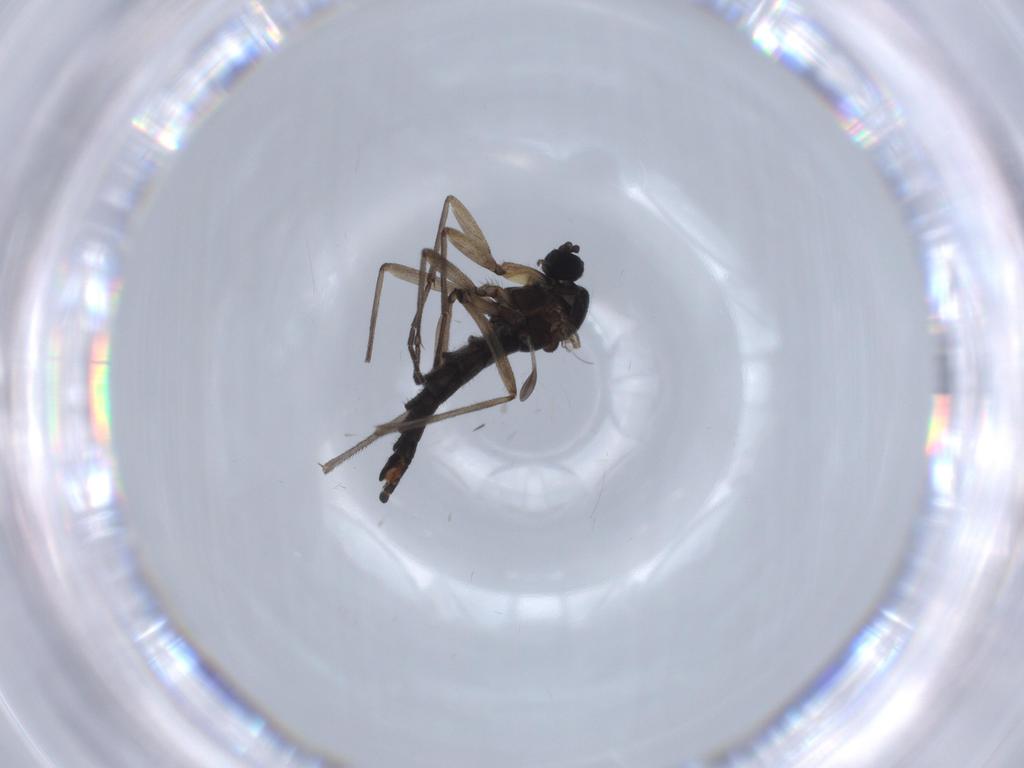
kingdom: Animalia
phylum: Arthropoda
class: Insecta
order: Diptera
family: Sciaridae
